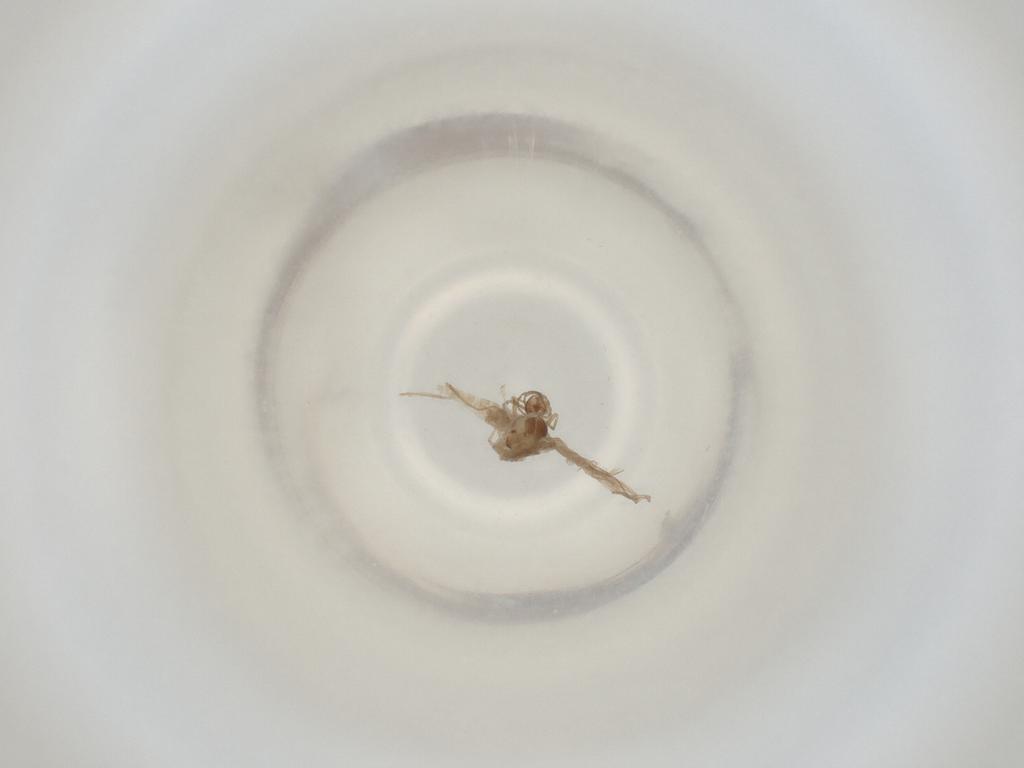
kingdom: Animalia
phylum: Arthropoda
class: Insecta
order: Diptera
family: Cecidomyiidae
